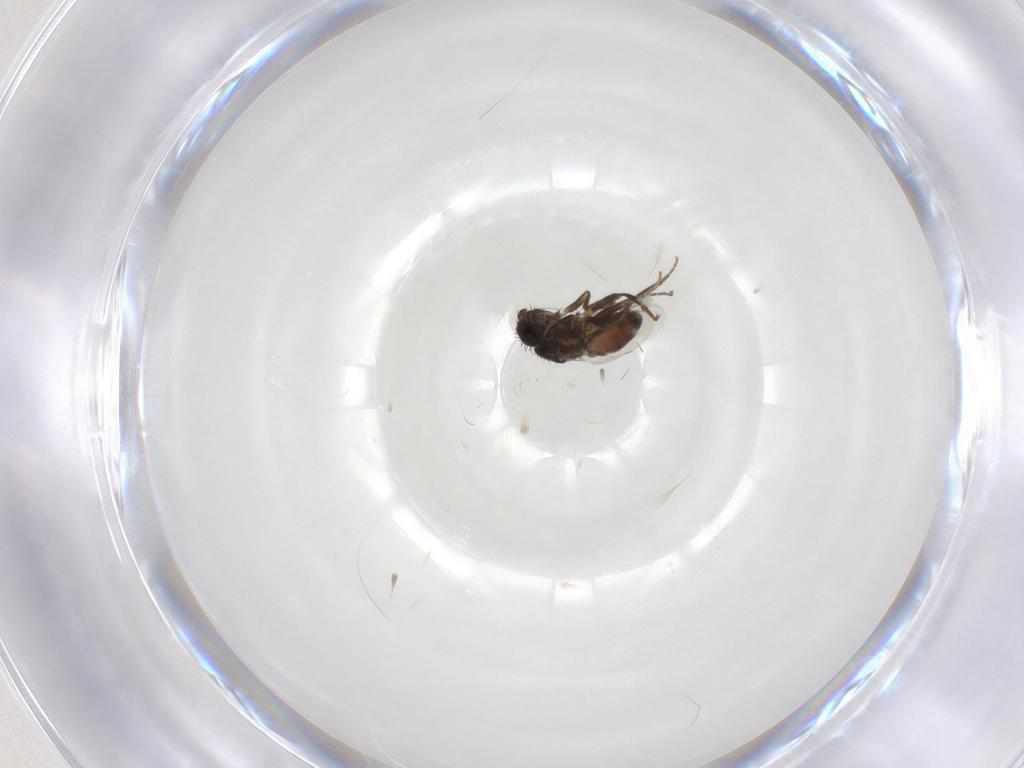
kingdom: Animalia
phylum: Arthropoda
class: Insecta
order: Diptera
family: Sphaeroceridae
